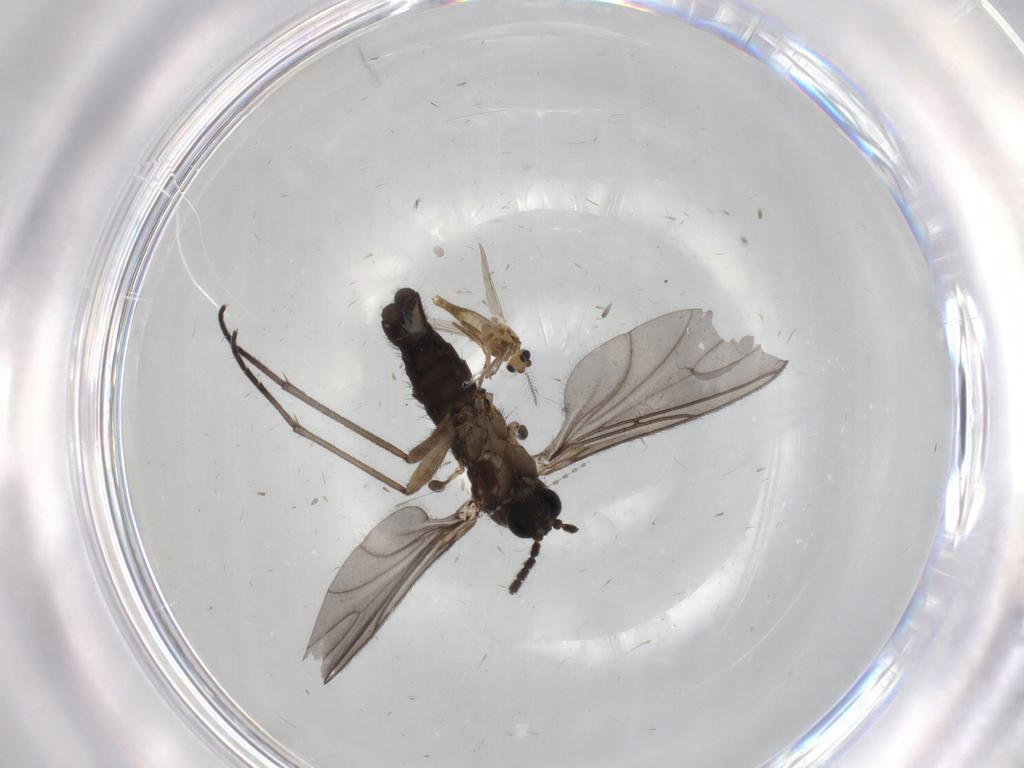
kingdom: Animalia
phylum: Arthropoda
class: Insecta
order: Diptera
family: Chironomidae
